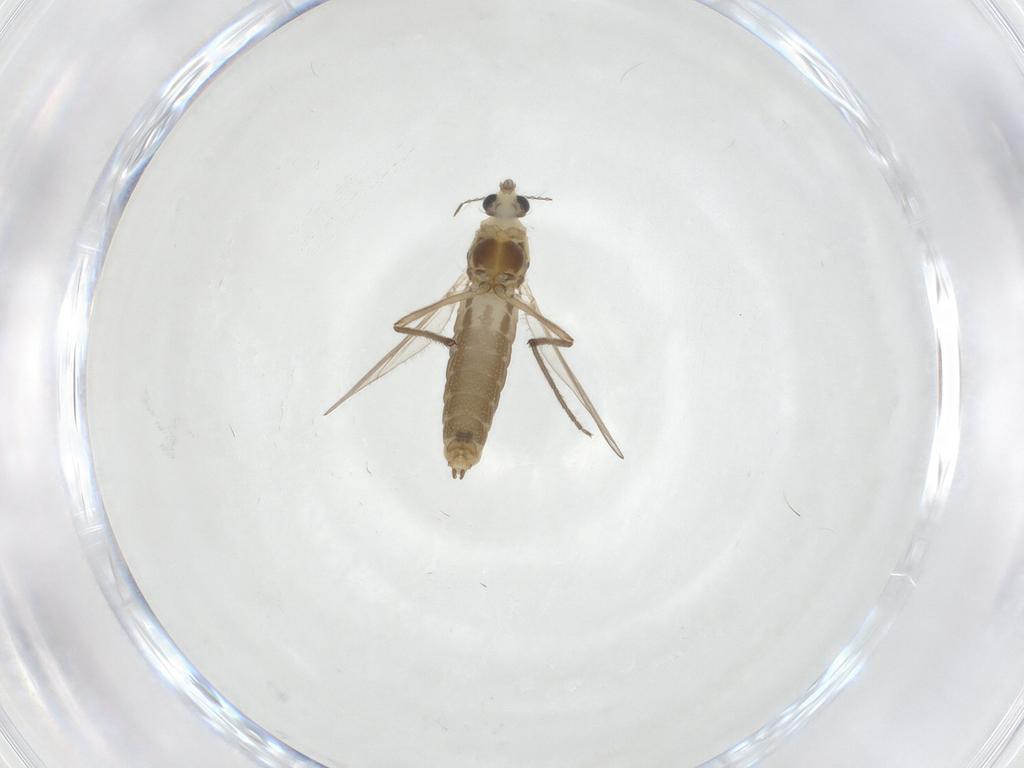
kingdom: Animalia
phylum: Arthropoda
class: Insecta
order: Diptera
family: Chironomidae
